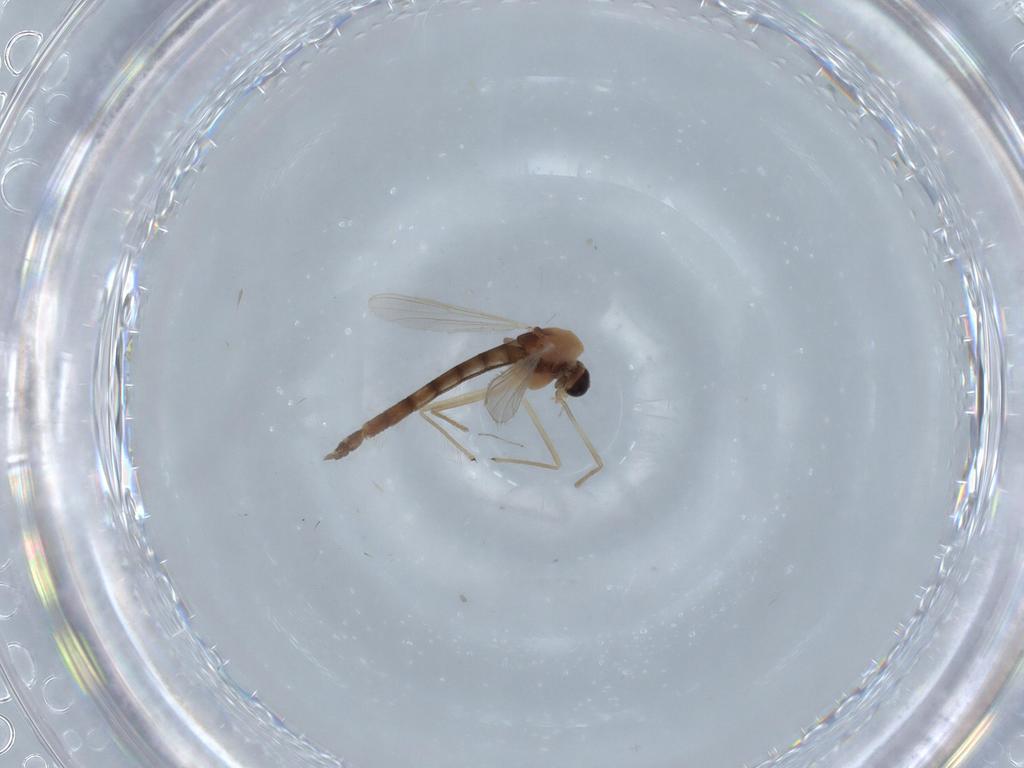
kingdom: Animalia
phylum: Arthropoda
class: Insecta
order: Diptera
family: Dolichopodidae
